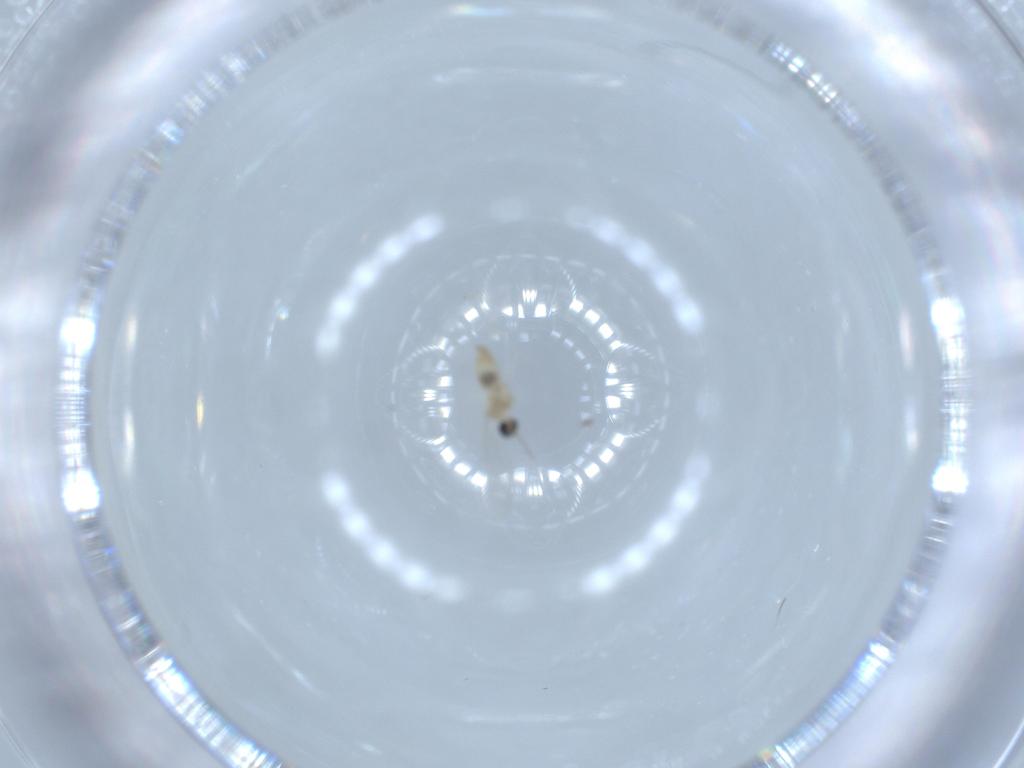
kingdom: Animalia
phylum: Arthropoda
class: Insecta
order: Diptera
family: Cecidomyiidae
